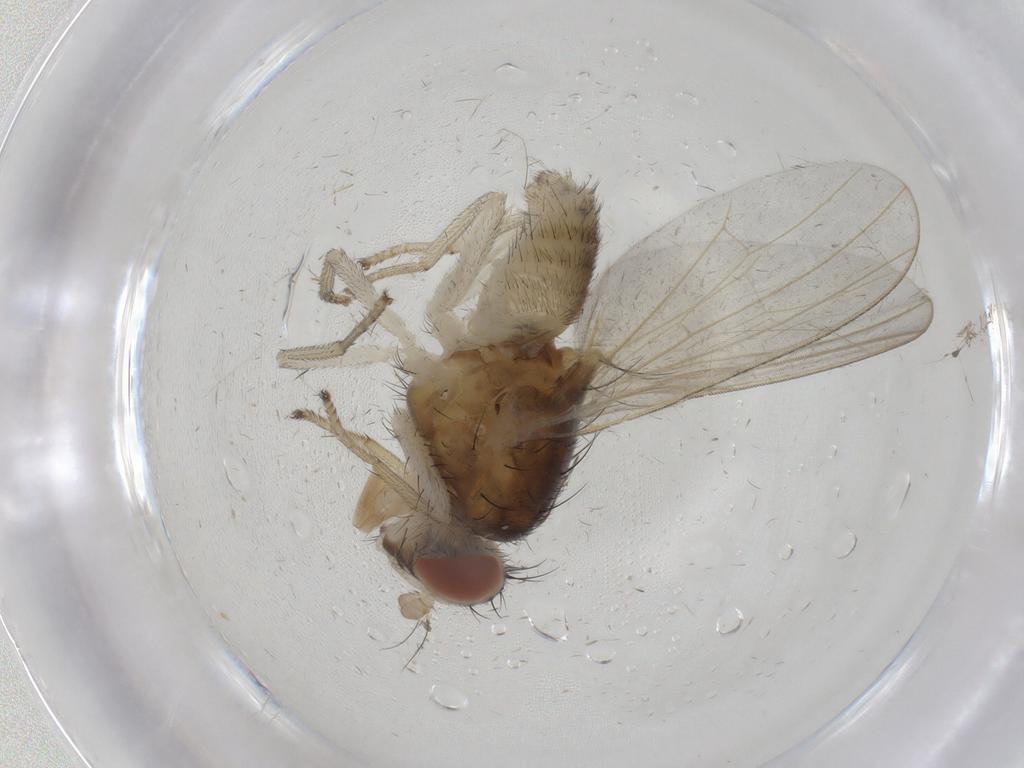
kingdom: Animalia
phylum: Arthropoda
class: Insecta
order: Diptera
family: Lauxaniidae
